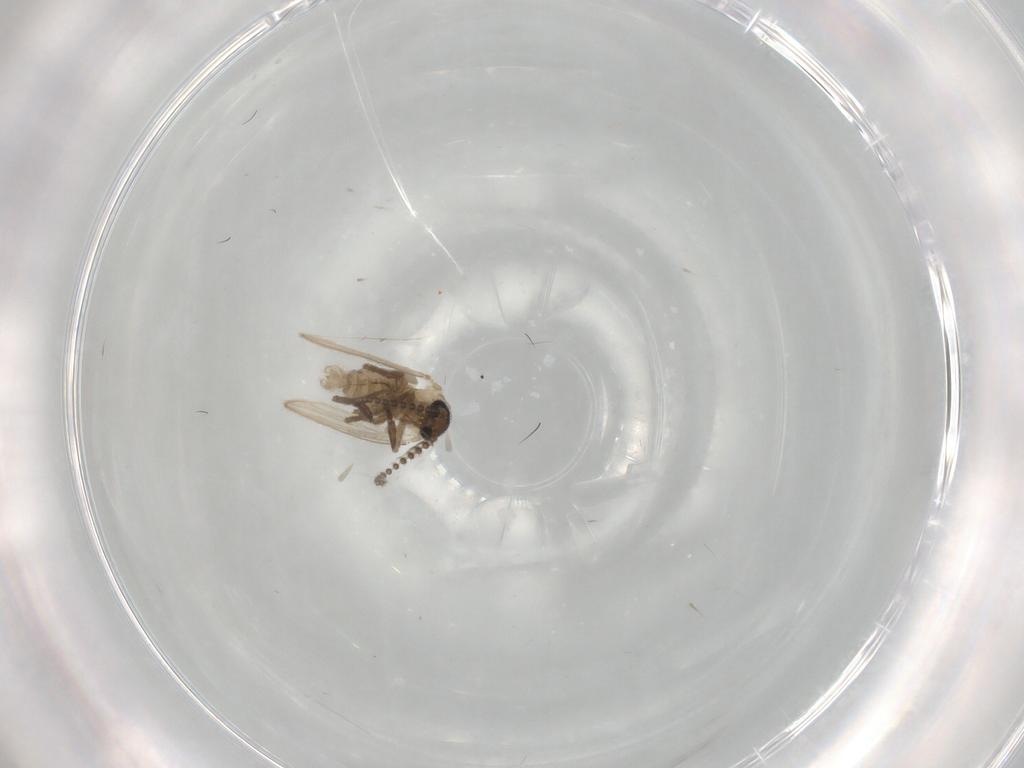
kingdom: Animalia
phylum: Arthropoda
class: Insecta
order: Diptera
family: Psychodidae
